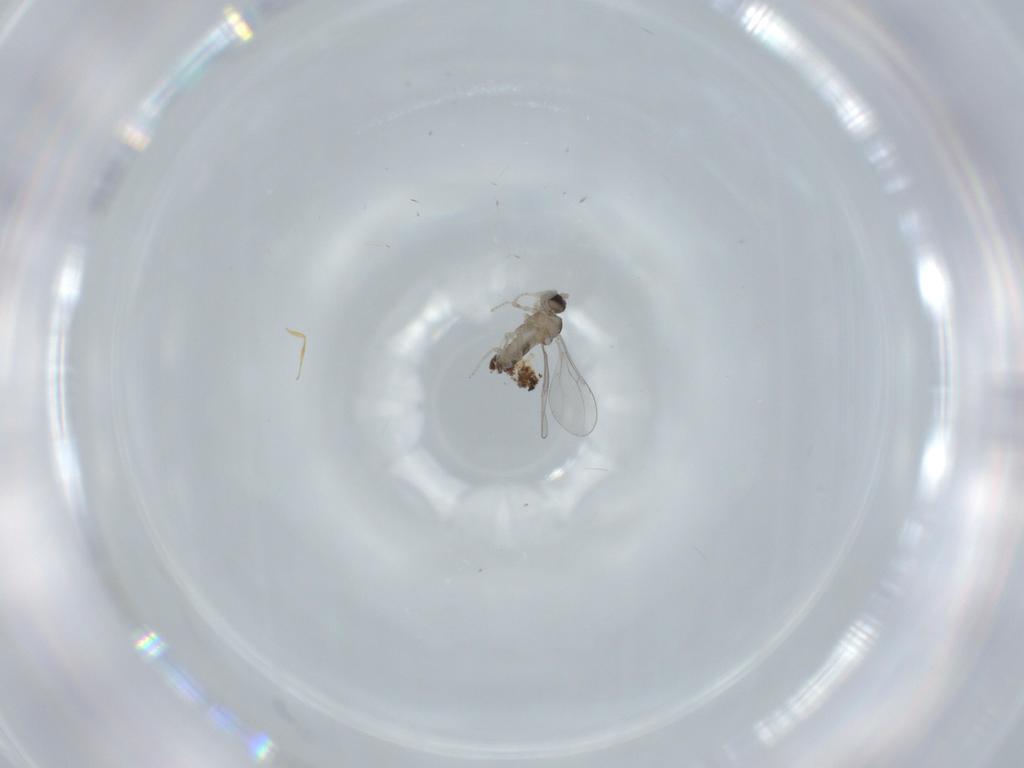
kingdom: Animalia
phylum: Arthropoda
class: Insecta
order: Diptera
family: Cecidomyiidae
